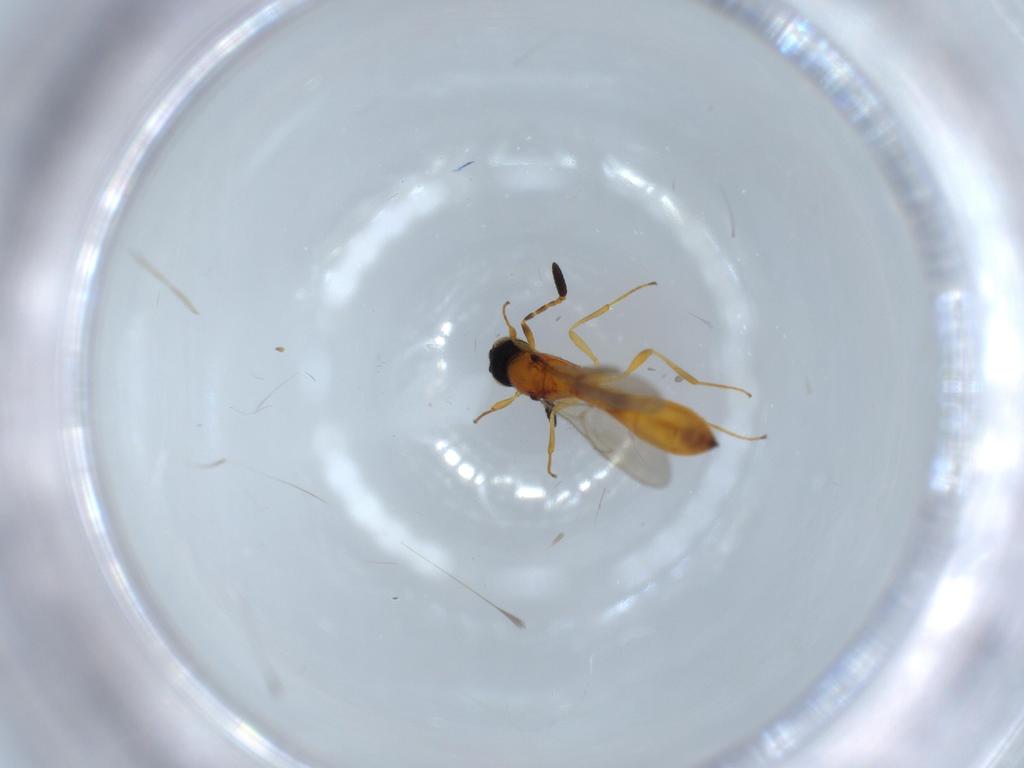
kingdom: Animalia
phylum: Arthropoda
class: Insecta
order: Hymenoptera
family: Scelionidae
